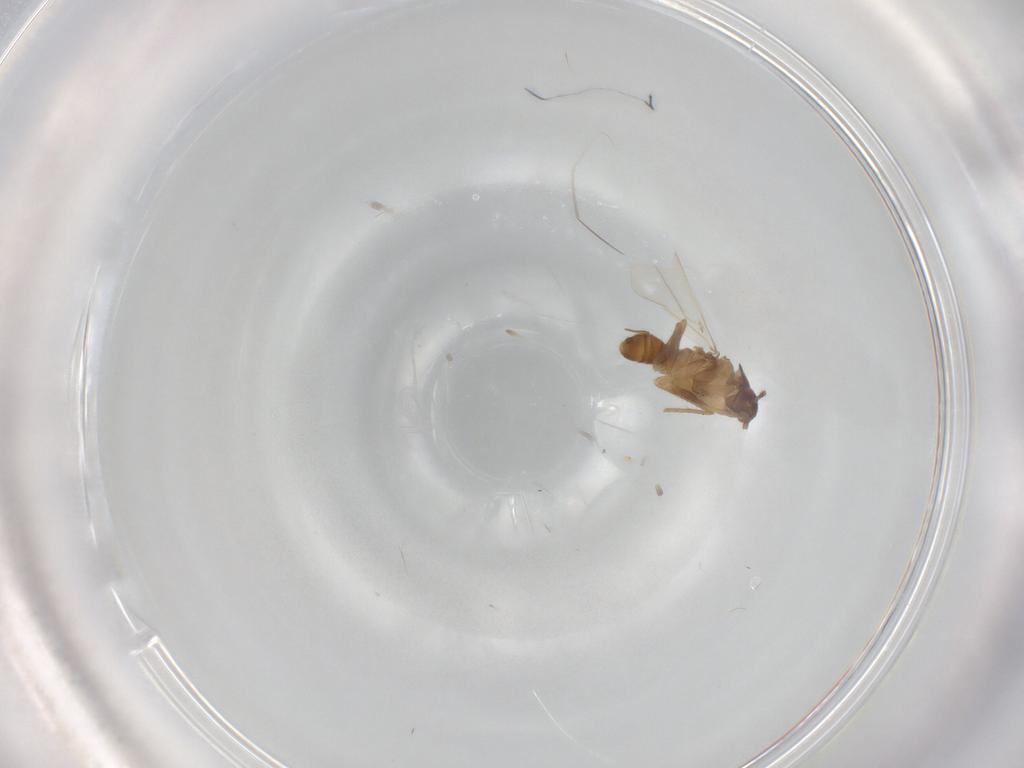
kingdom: Animalia
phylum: Arthropoda
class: Insecta
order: Hemiptera
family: Ceratocombidae
